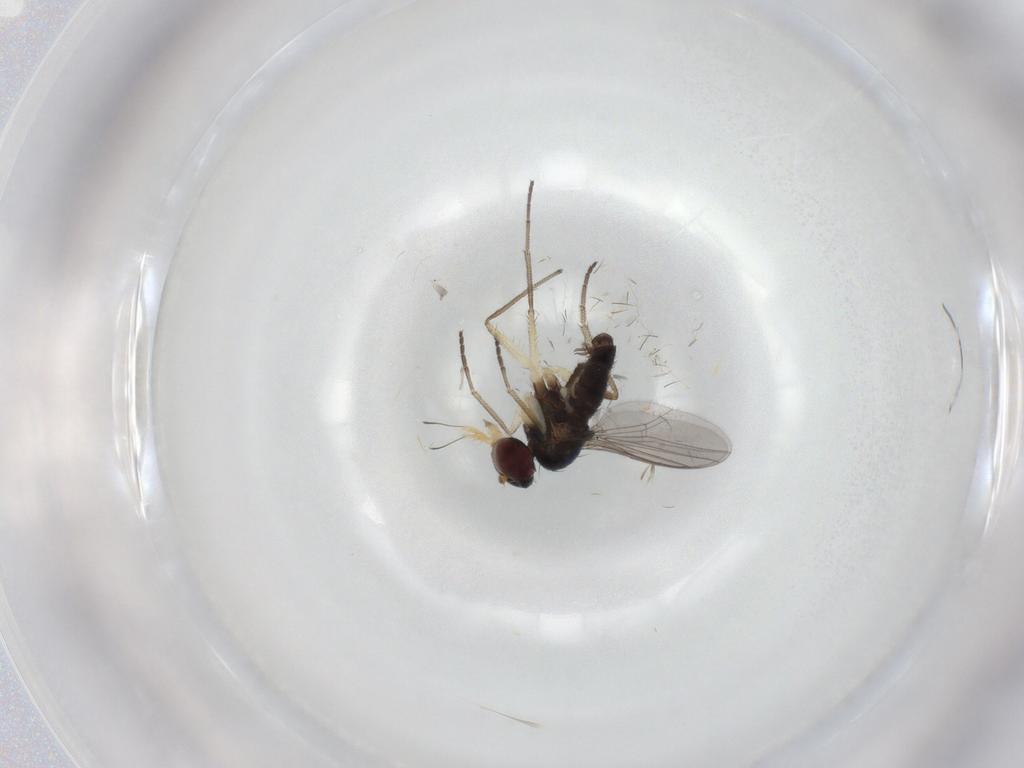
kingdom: Animalia
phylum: Arthropoda
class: Insecta
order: Diptera
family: Dolichopodidae
